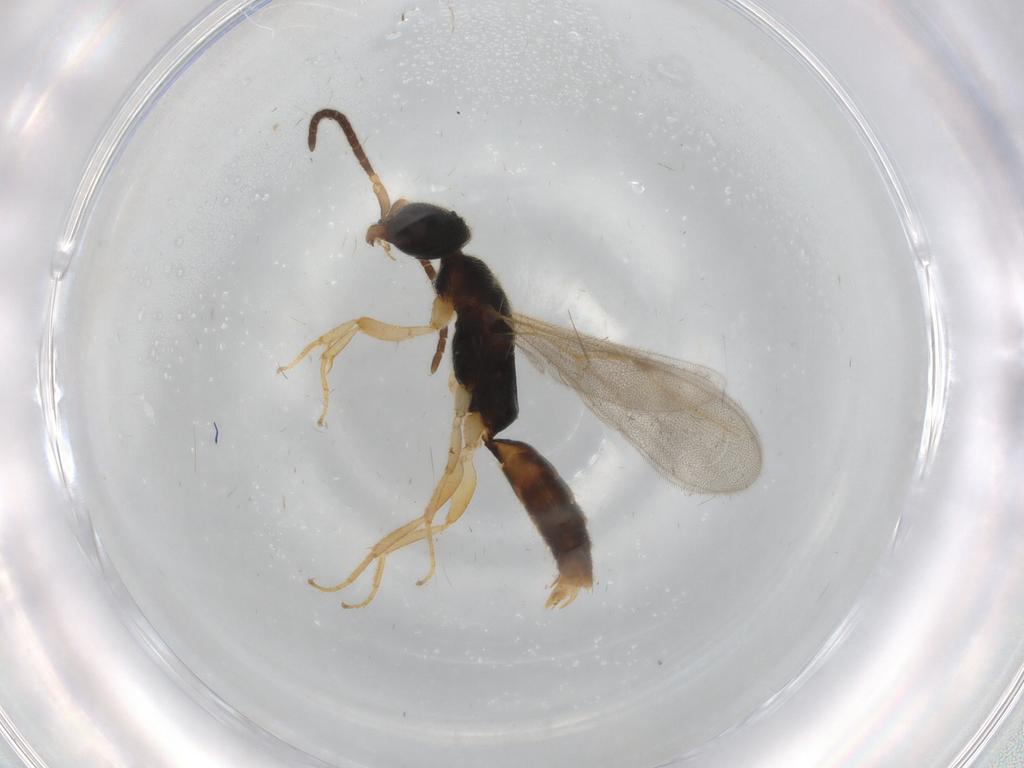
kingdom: Animalia
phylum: Arthropoda
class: Insecta
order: Hymenoptera
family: Bethylidae
